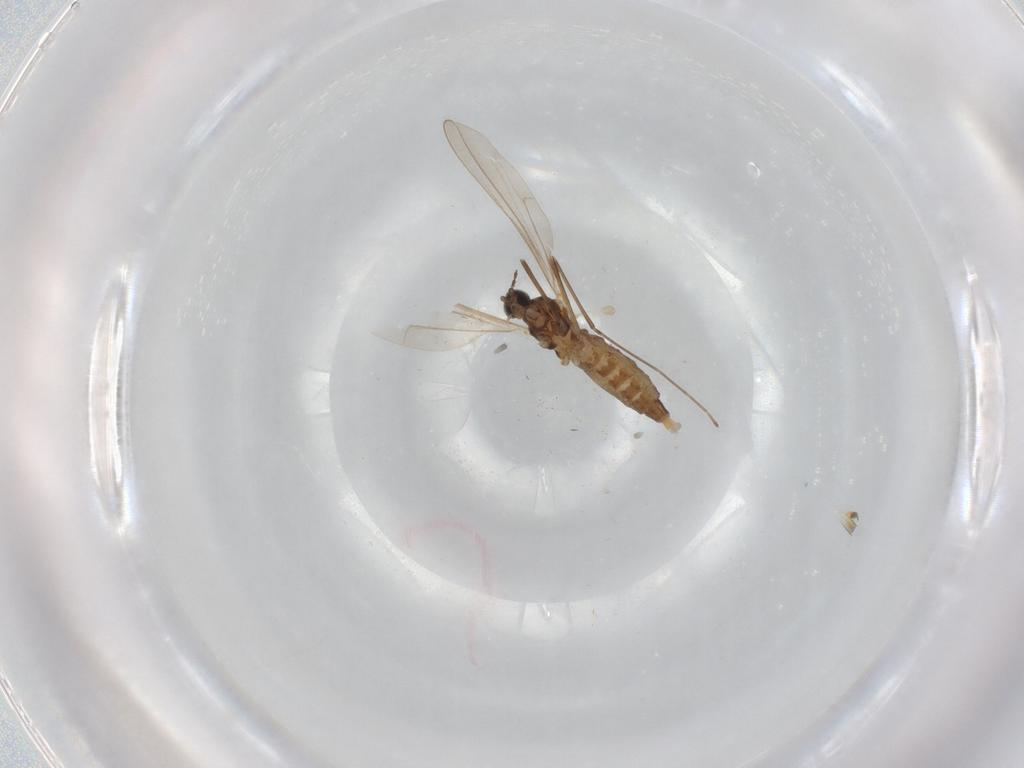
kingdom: Animalia
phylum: Arthropoda
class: Insecta
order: Diptera
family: Cecidomyiidae
